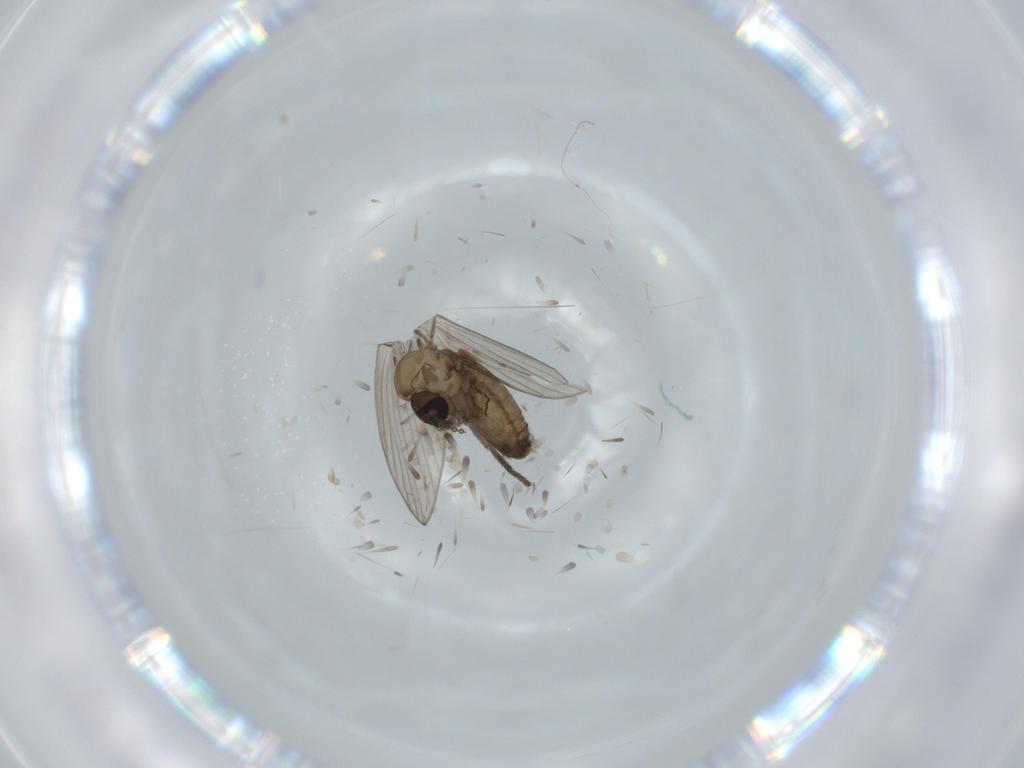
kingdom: Animalia
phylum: Arthropoda
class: Insecta
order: Diptera
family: Psychodidae
